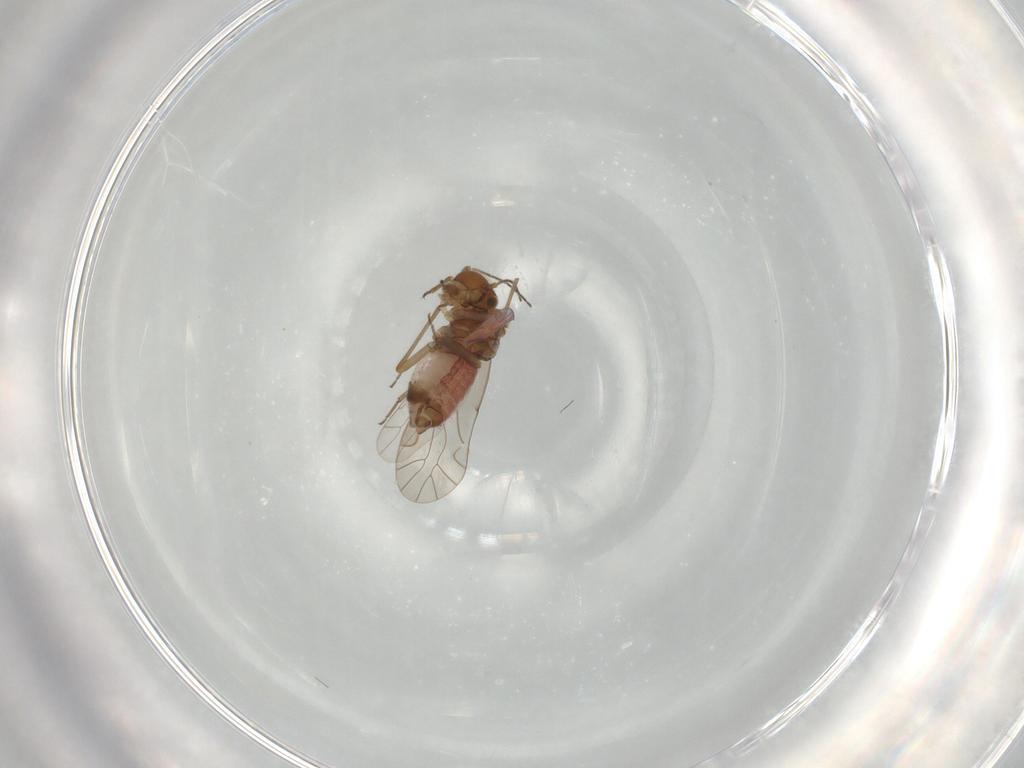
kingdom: Animalia
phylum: Arthropoda
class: Insecta
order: Psocodea
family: Lachesillidae
